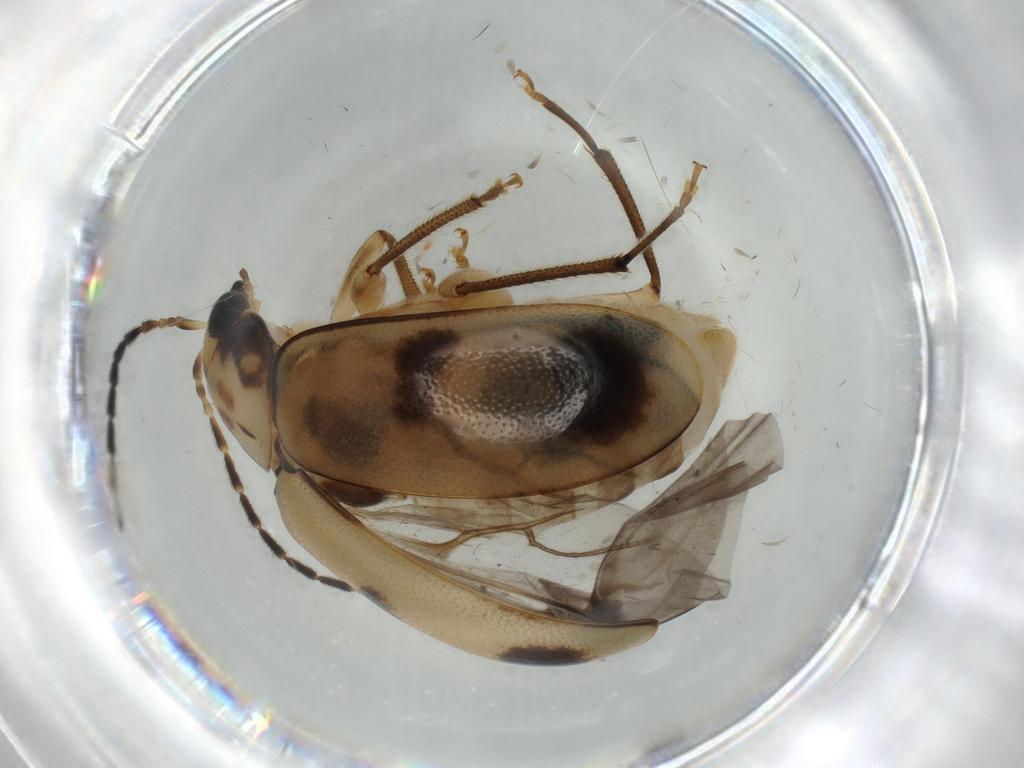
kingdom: Animalia
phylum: Arthropoda
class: Insecta
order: Coleoptera
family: Chrysomelidae
